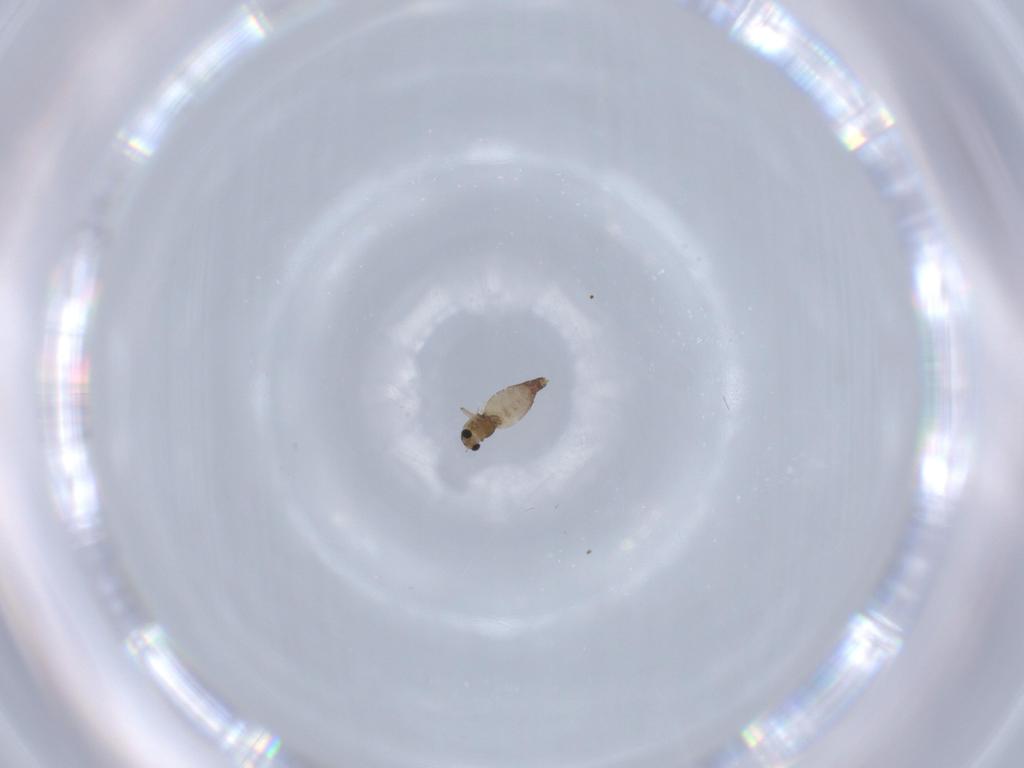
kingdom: Animalia
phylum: Arthropoda
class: Insecta
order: Diptera
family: Chironomidae
